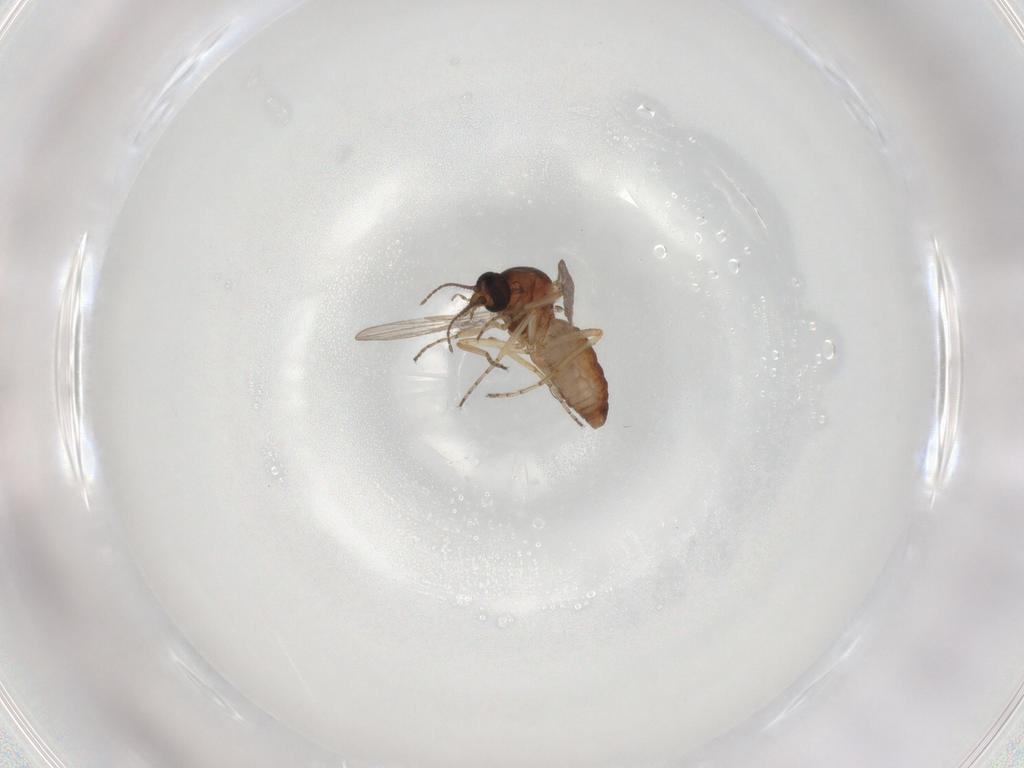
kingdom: Animalia
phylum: Arthropoda
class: Insecta
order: Diptera
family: Ceratopogonidae
